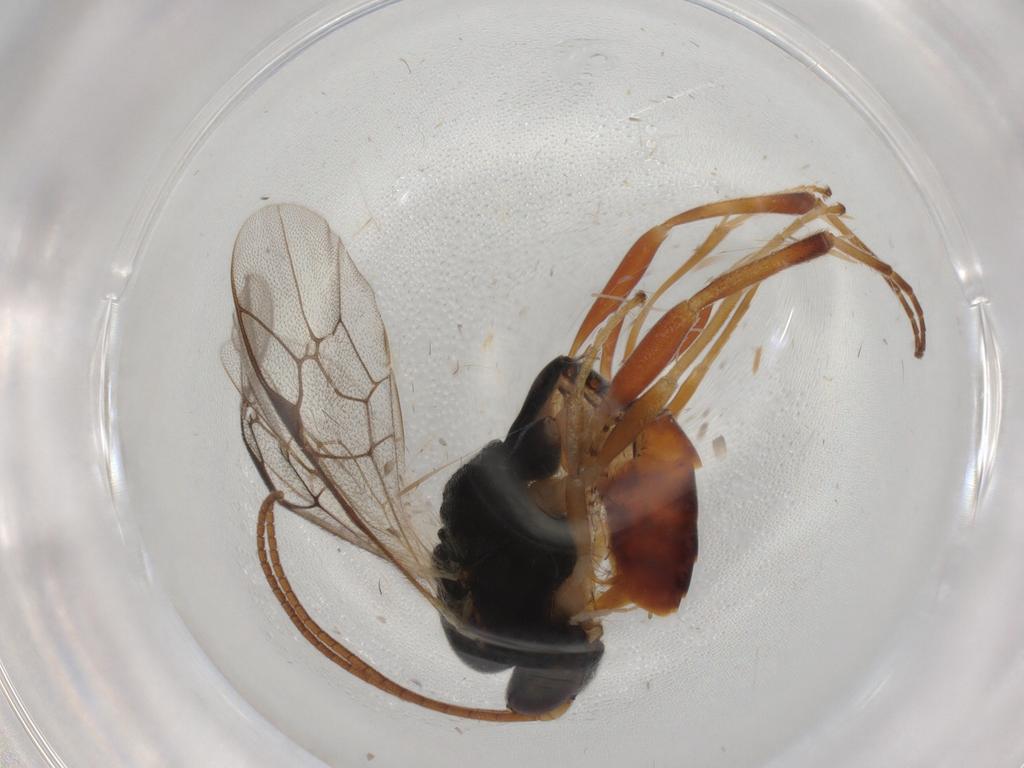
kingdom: Animalia
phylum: Arthropoda
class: Insecta
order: Hymenoptera
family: Ichneumonidae
